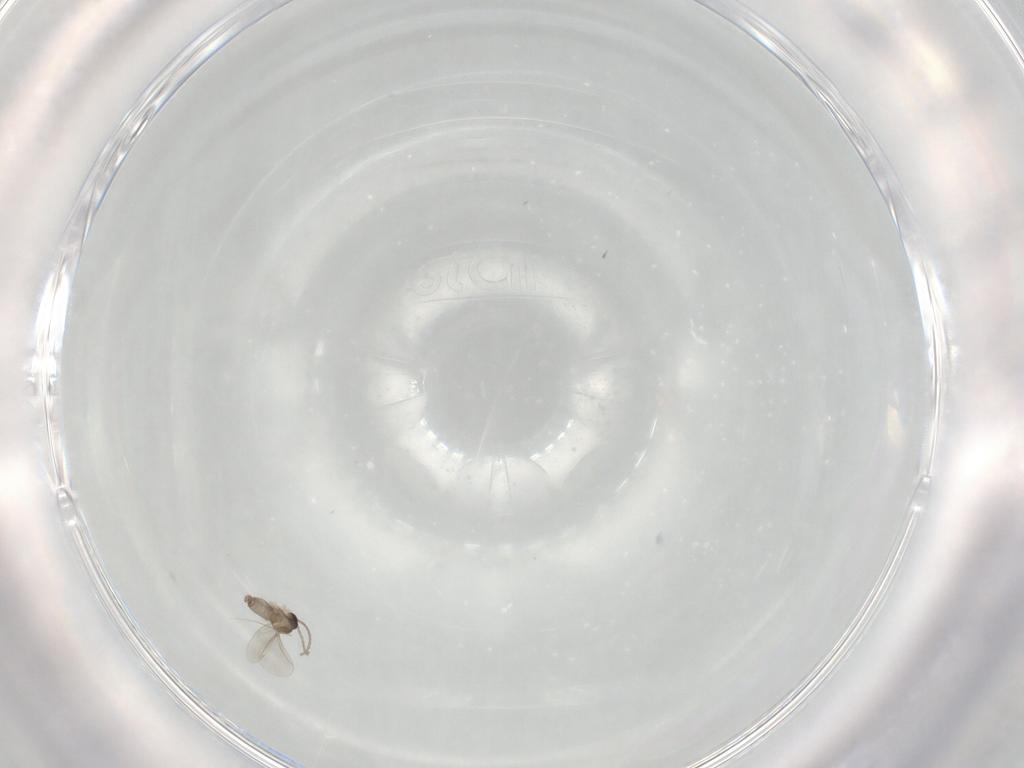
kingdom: Animalia
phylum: Arthropoda
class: Insecta
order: Diptera
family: Cecidomyiidae
